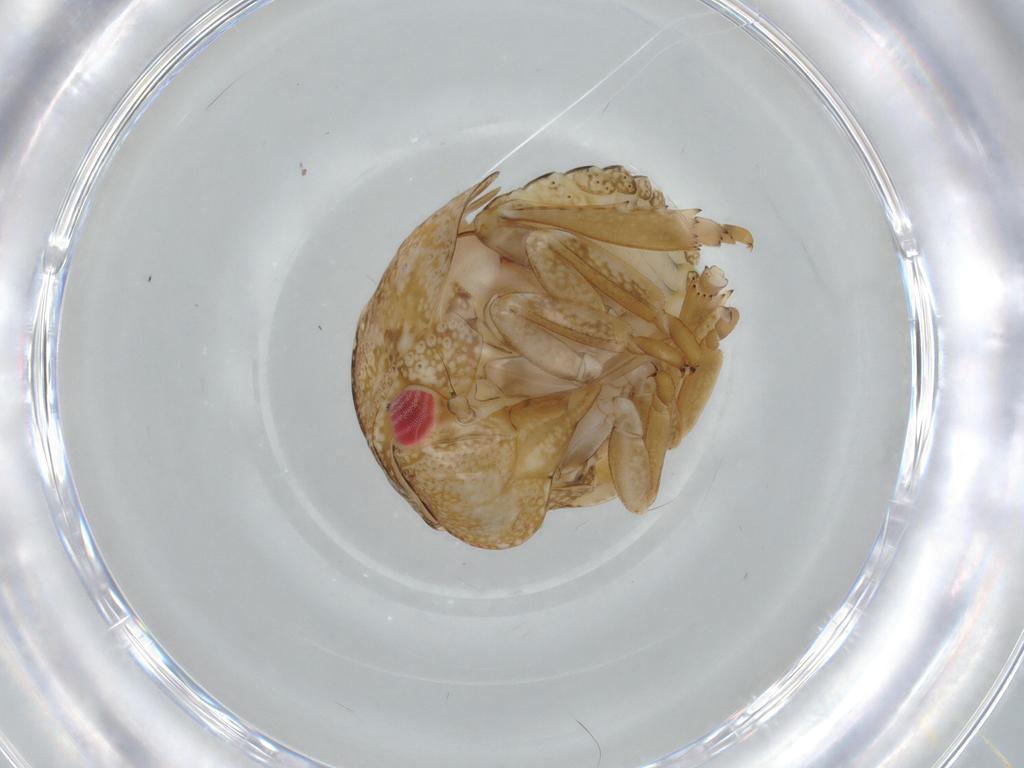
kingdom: Animalia
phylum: Arthropoda
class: Insecta
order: Hemiptera
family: Acanaloniidae
